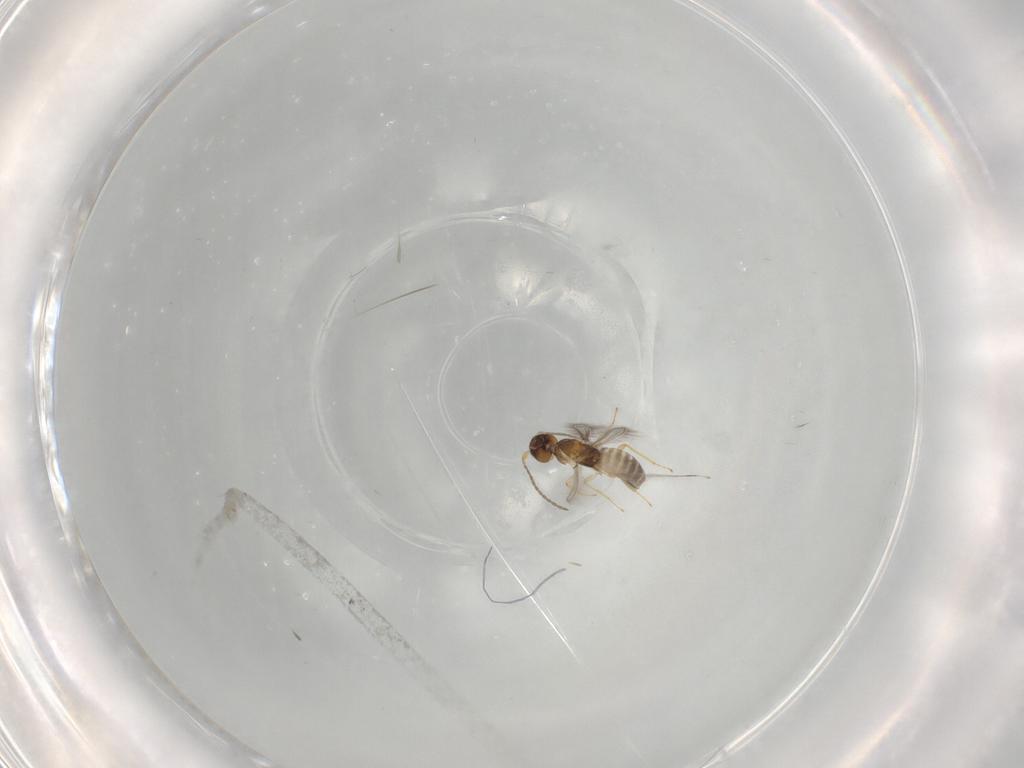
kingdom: Animalia
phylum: Arthropoda
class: Insecta
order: Hymenoptera
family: Mymaridae
